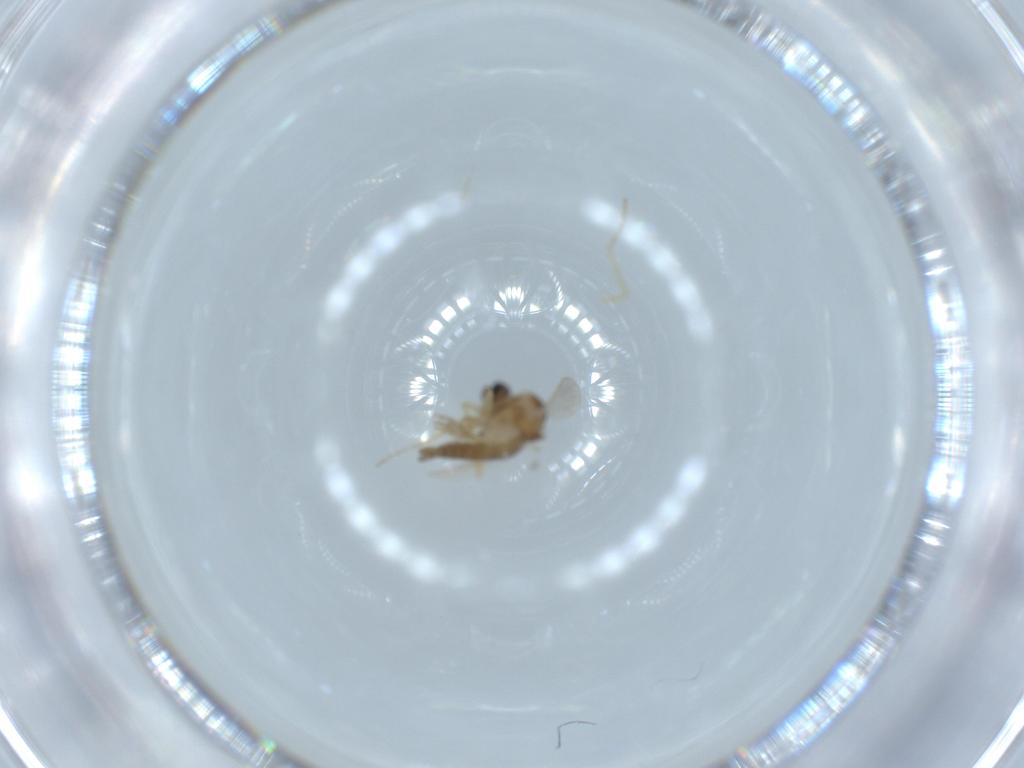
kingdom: Animalia
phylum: Arthropoda
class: Insecta
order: Diptera
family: Ceratopogonidae
